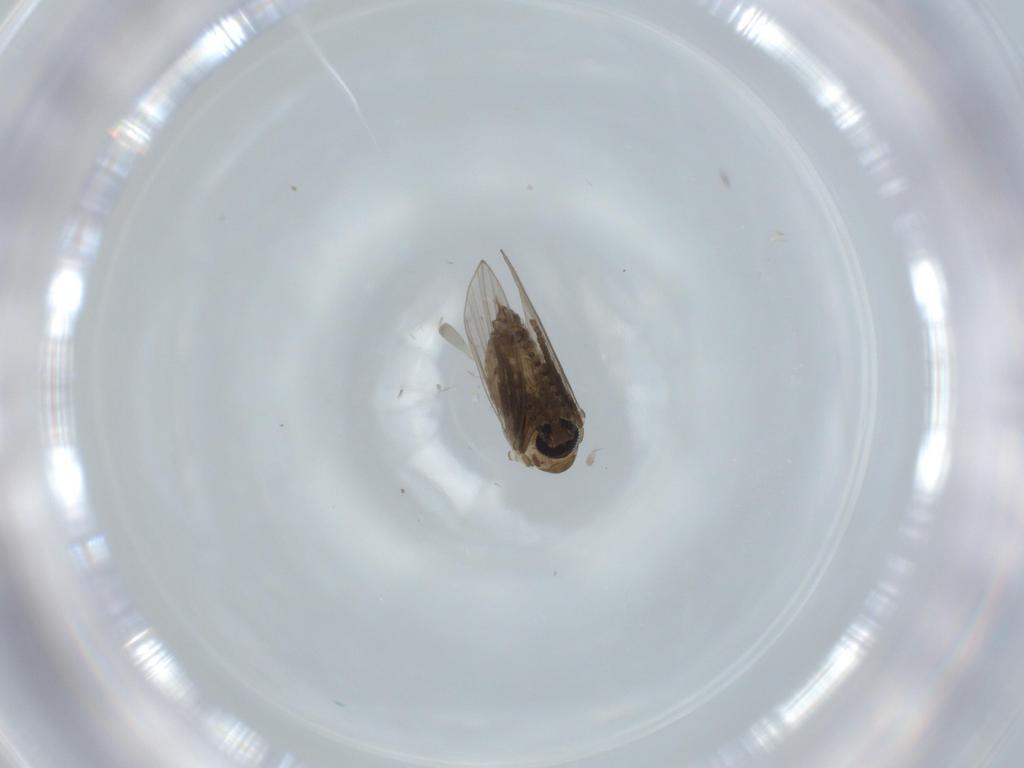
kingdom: Animalia
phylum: Arthropoda
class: Insecta
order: Diptera
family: Psychodidae
